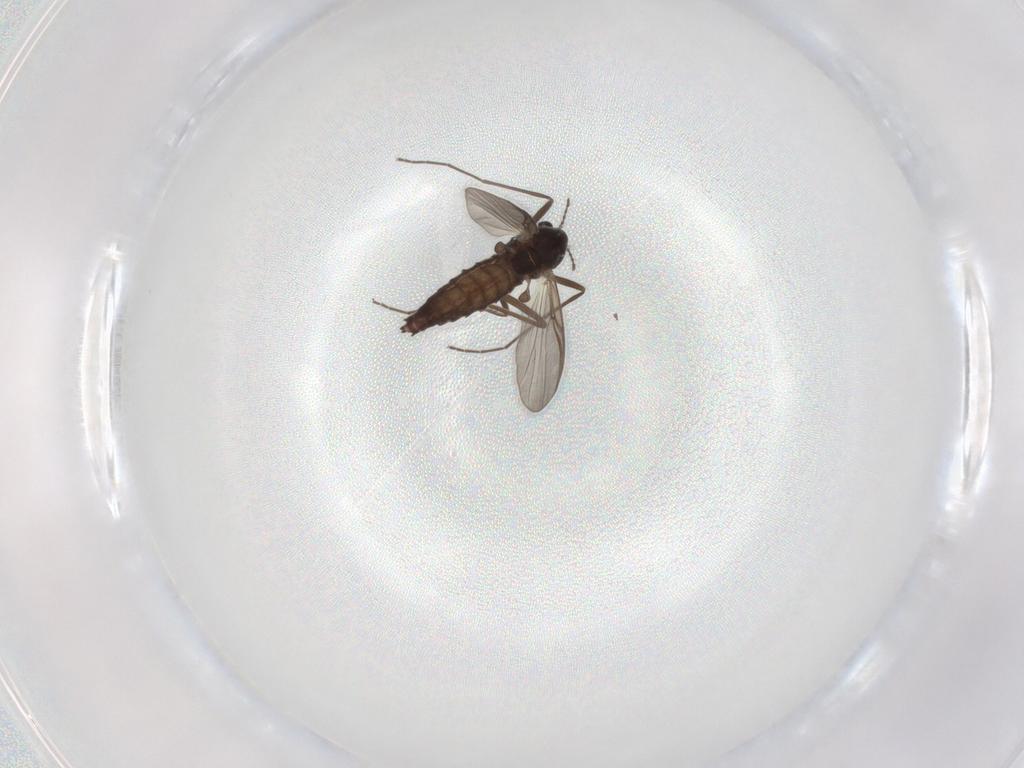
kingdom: Animalia
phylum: Arthropoda
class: Insecta
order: Diptera
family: Chironomidae
